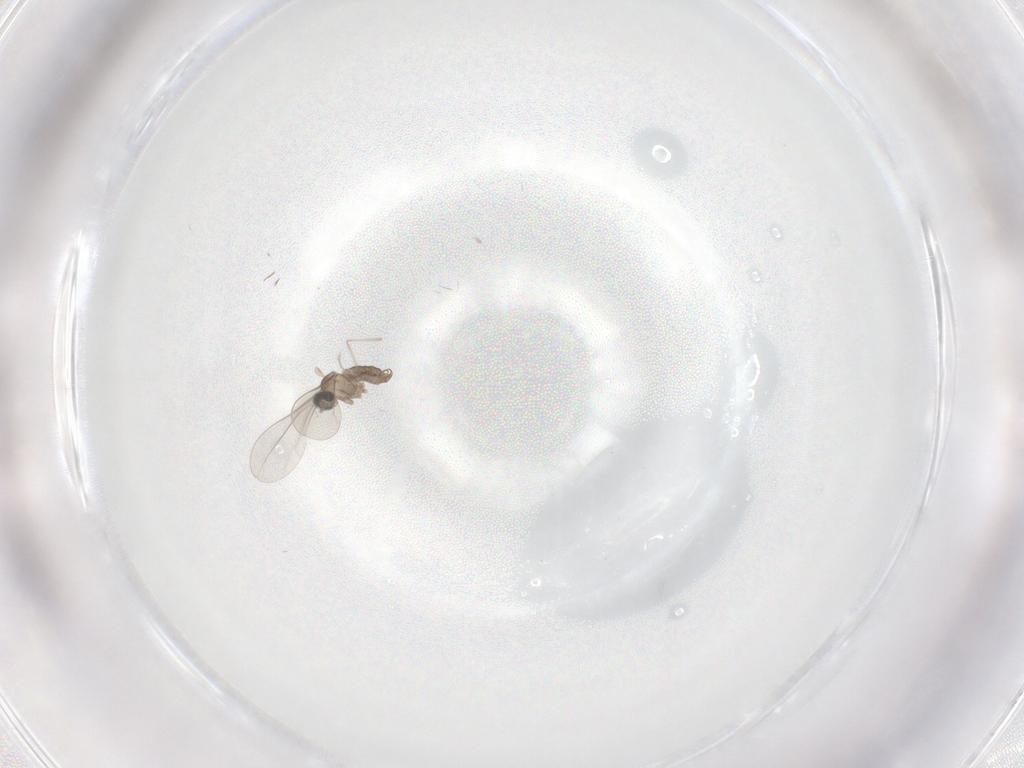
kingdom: Animalia
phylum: Arthropoda
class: Insecta
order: Diptera
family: Cecidomyiidae
